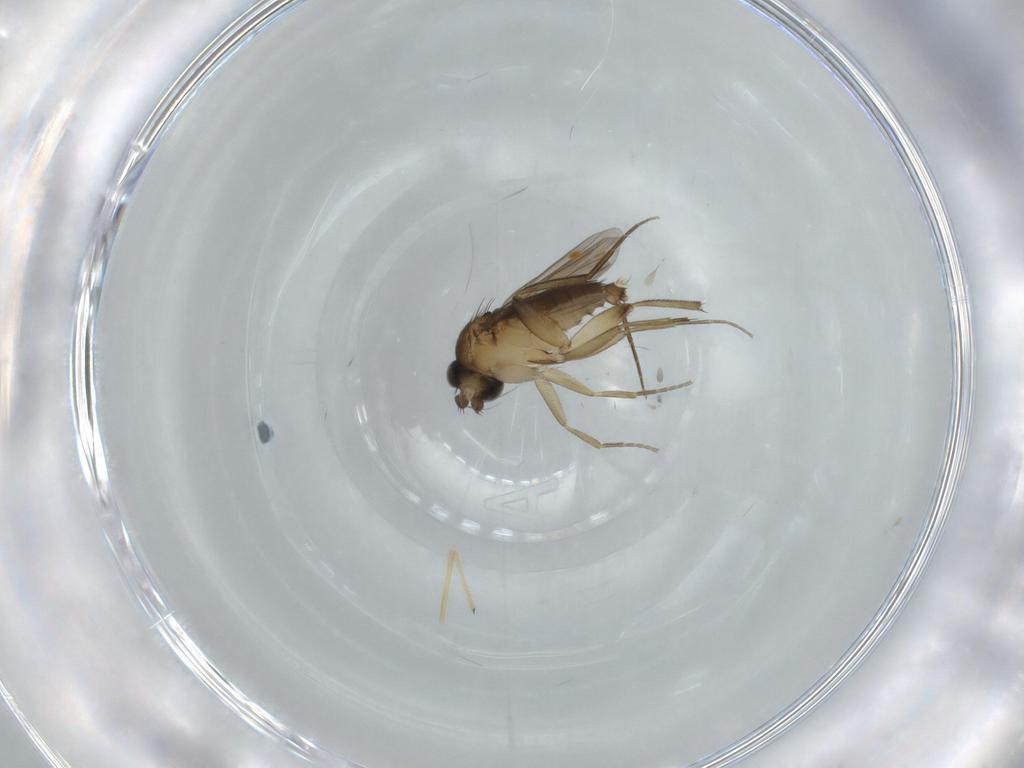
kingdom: Animalia
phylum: Arthropoda
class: Insecta
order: Diptera
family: Phoridae
